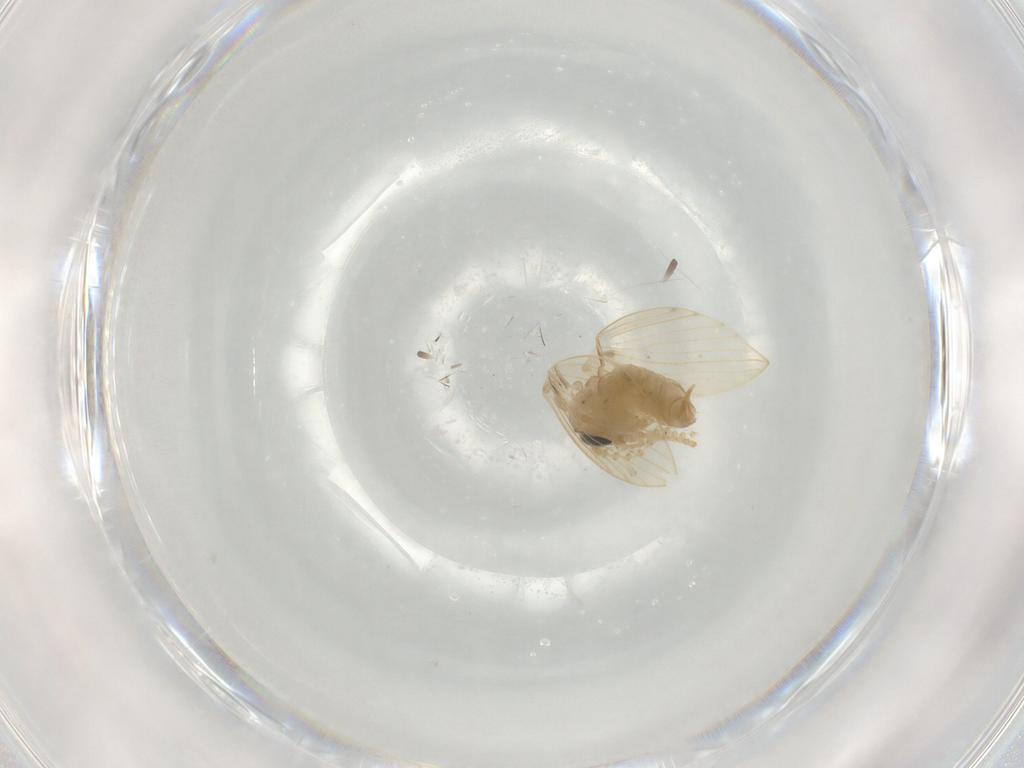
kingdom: Animalia
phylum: Arthropoda
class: Insecta
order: Diptera
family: Psychodidae
